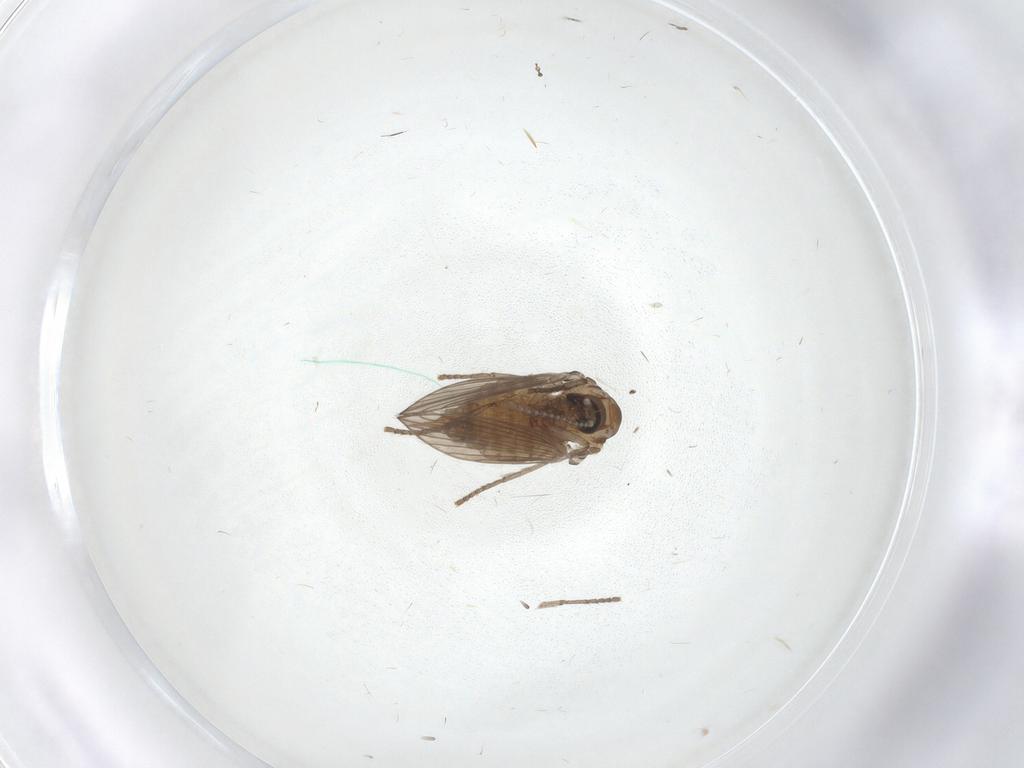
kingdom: Animalia
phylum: Arthropoda
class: Insecta
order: Diptera
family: Psychodidae
